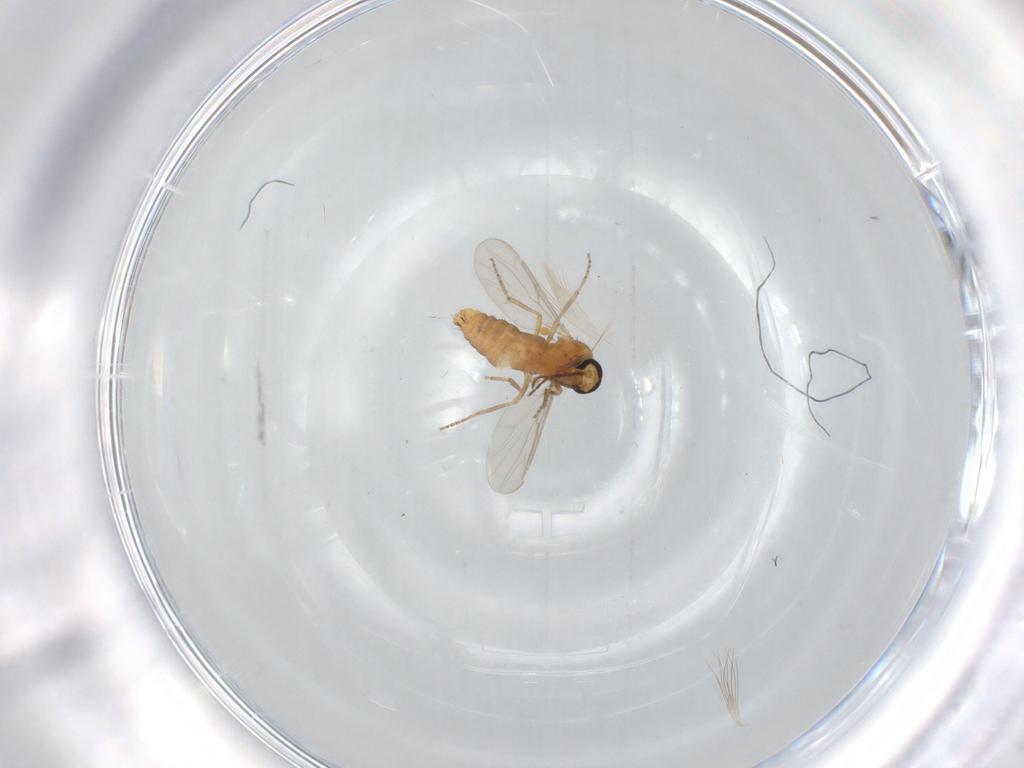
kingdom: Animalia
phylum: Arthropoda
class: Insecta
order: Diptera
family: Ceratopogonidae
